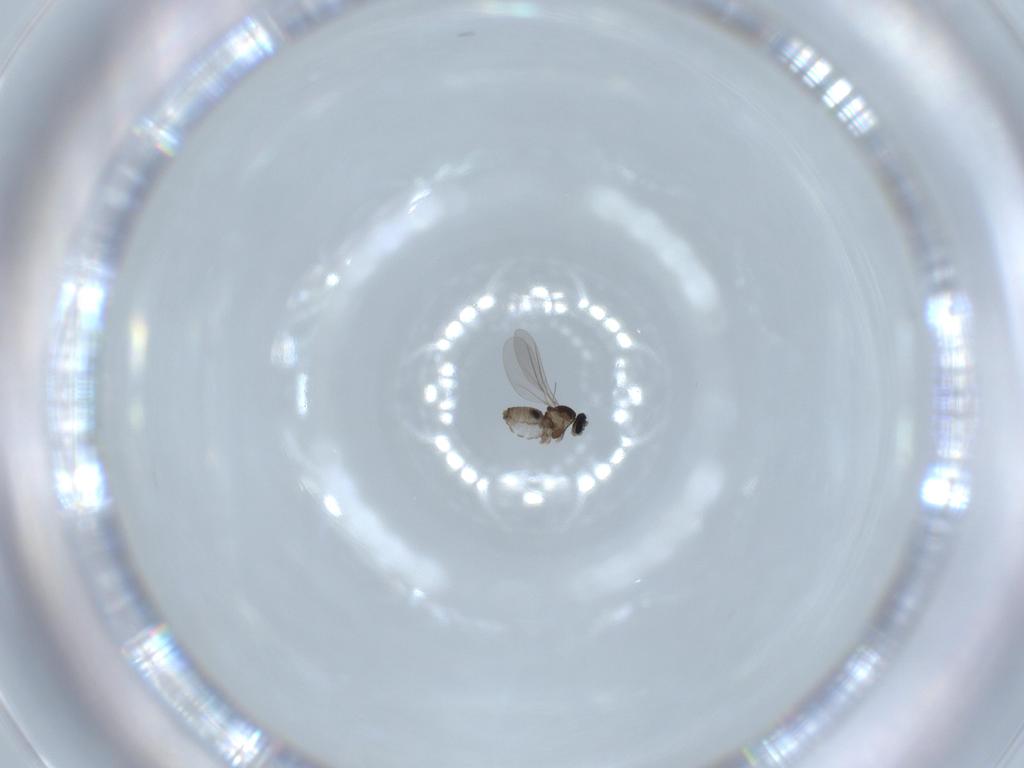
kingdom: Animalia
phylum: Arthropoda
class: Insecta
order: Diptera
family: Cecidomyiidae
